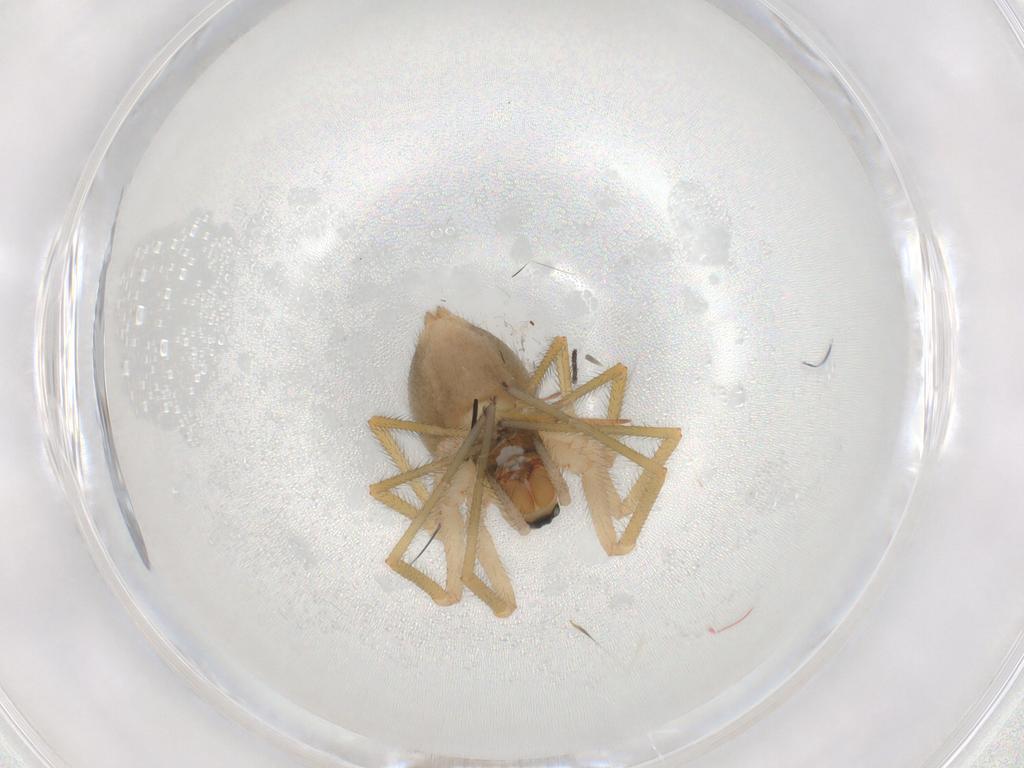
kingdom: Animalia
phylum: Arthropoda
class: Arachnida
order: Araneae
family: Linyphiidae
